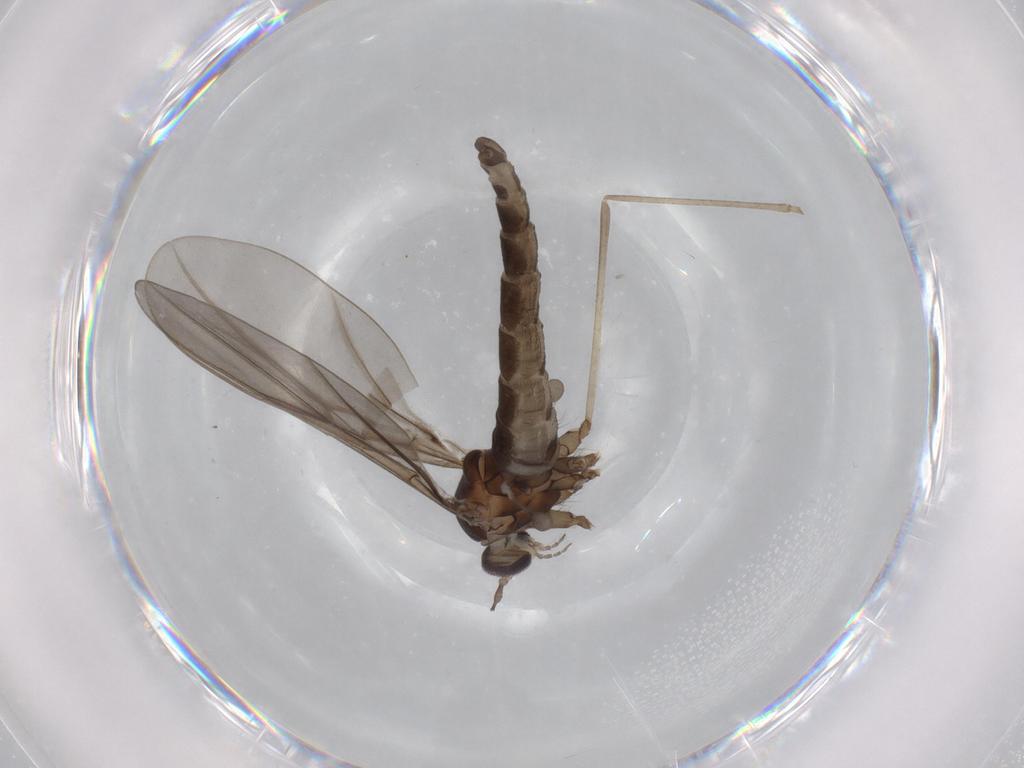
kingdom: Animalia
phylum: Arthropoda
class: Insecta
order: Diptera
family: Cecidomyiidae
